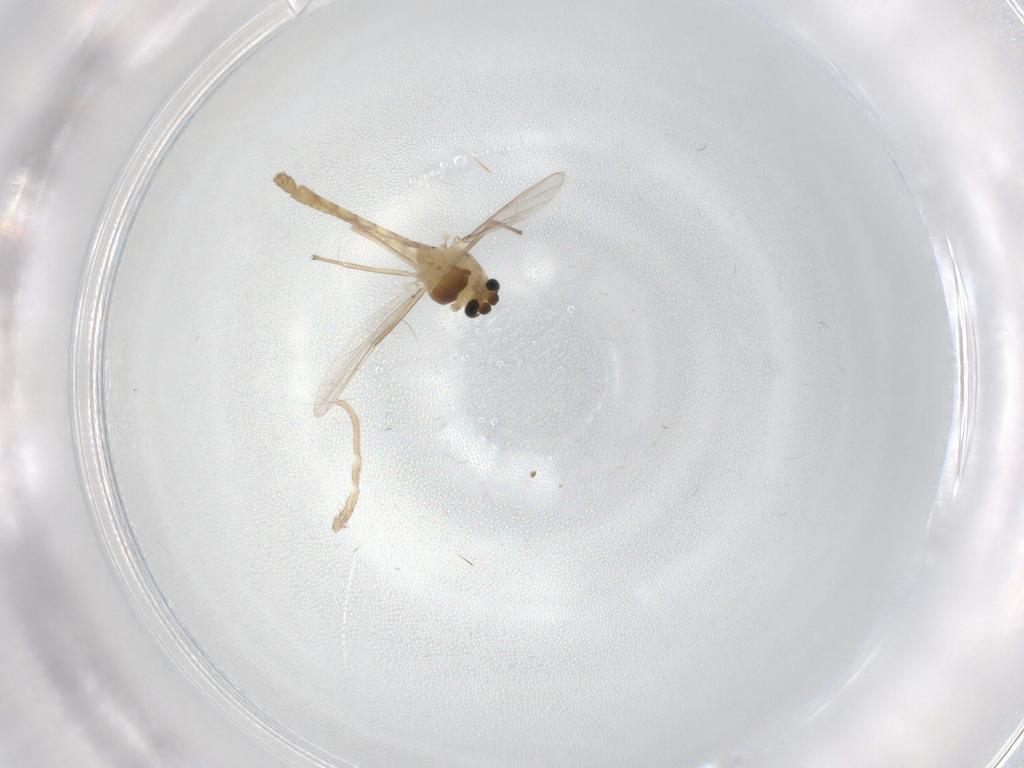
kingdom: Animalia
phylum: Arthropoda
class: Insecta
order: Diptera
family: Chironomidae
